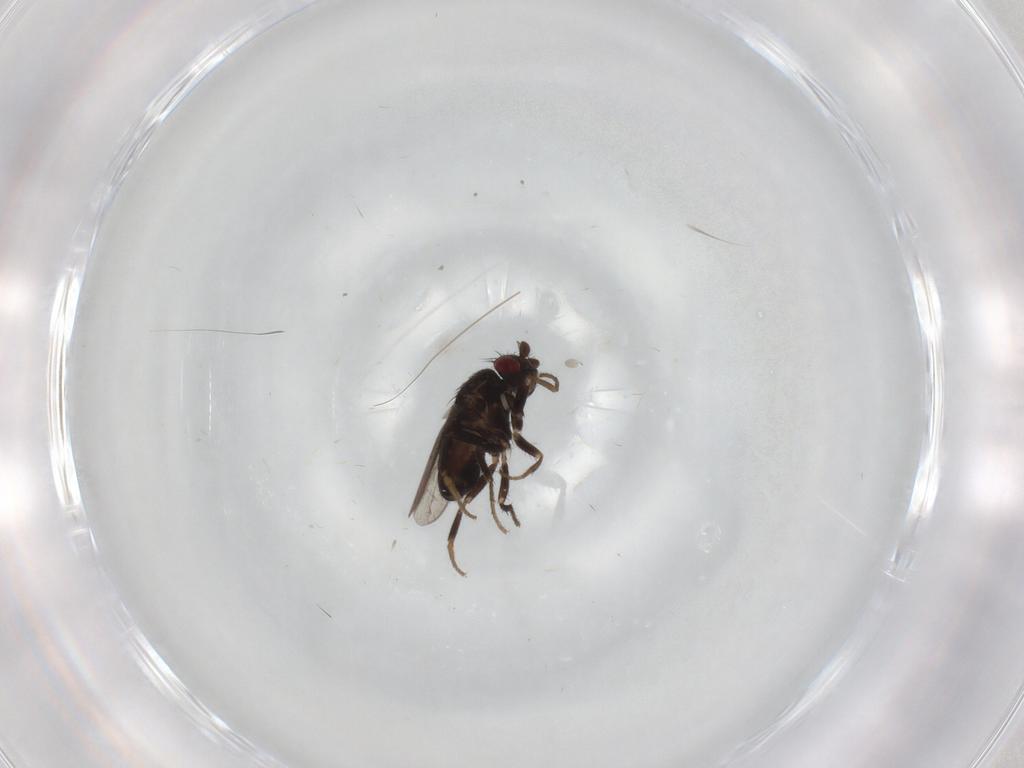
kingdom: Animalia
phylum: Arthropoda
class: Insecta
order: Diptera
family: Sphaeroceridae
